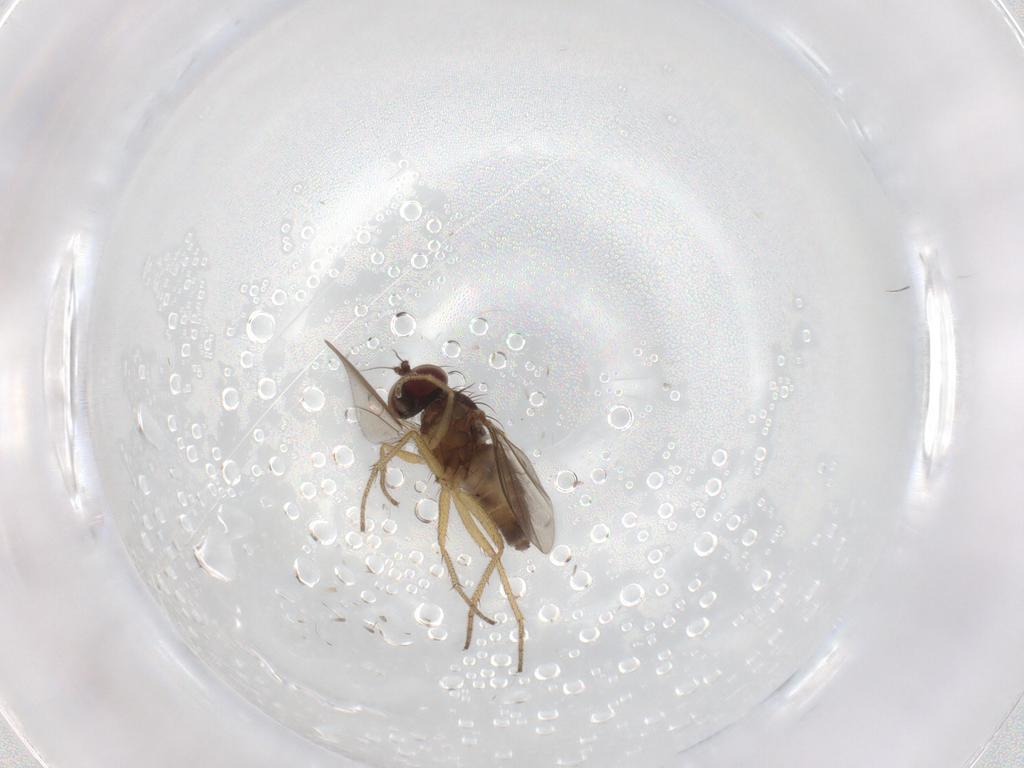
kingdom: Animalia
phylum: Arthropoda
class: Insecta
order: Diptera
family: Dolichopodidae
